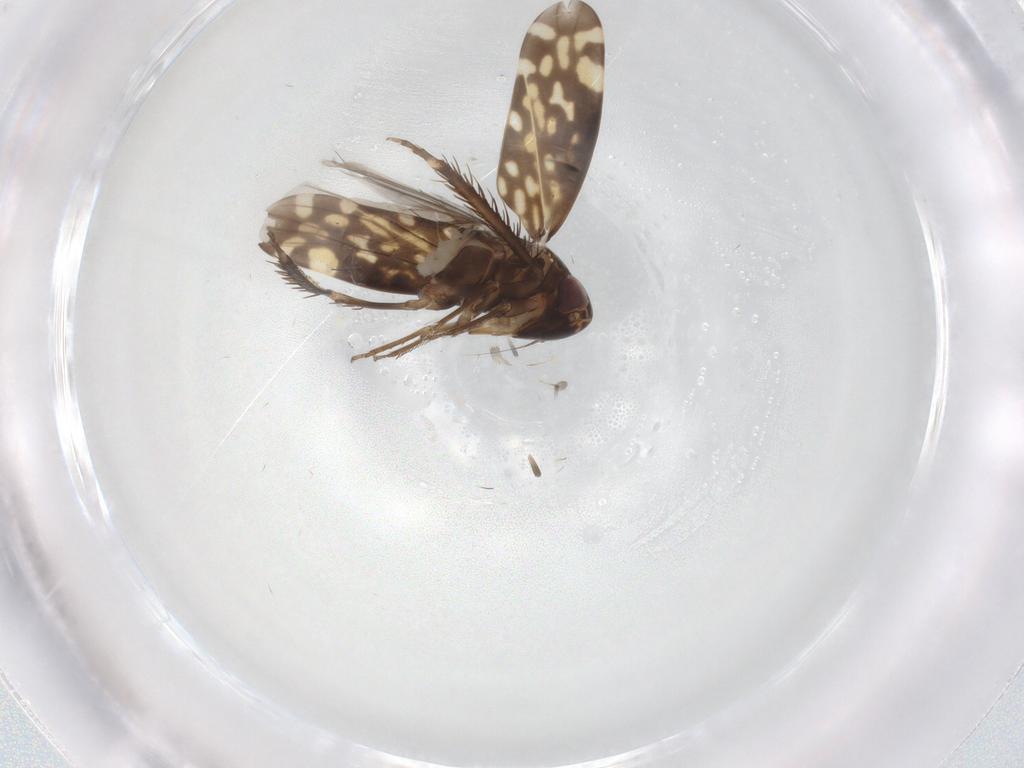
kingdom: Animalia
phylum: Arthropoda
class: Insecta
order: Hemiptera
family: Cicadellidae
